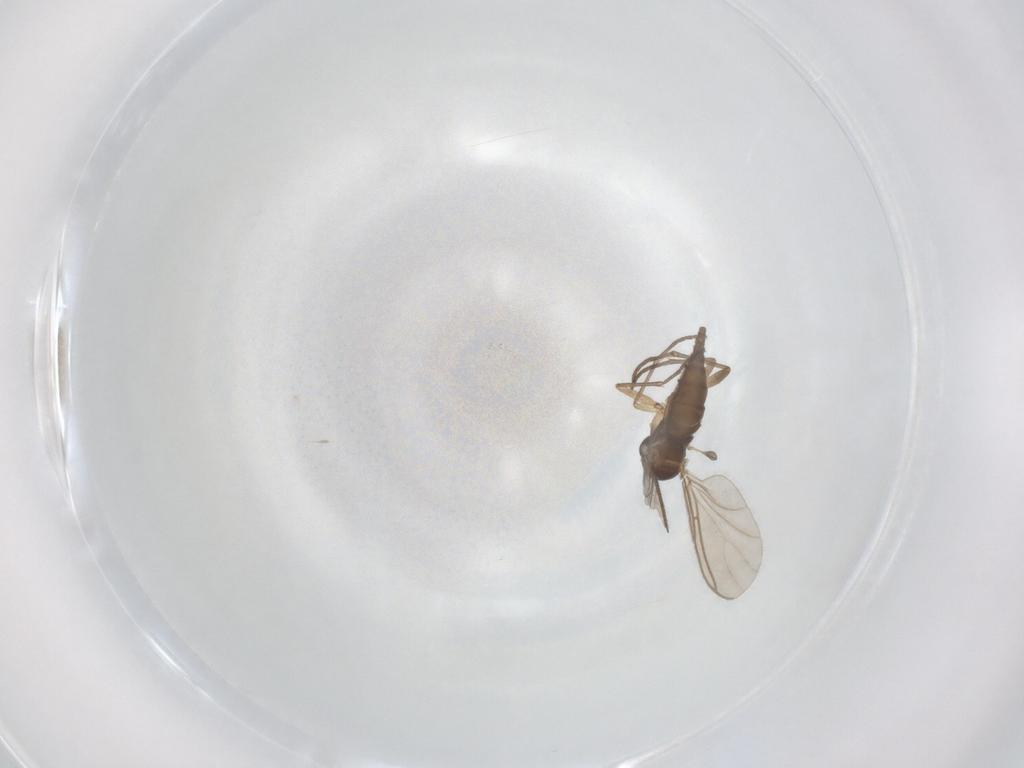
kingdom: Animalia
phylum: Arthropoda
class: Insecta
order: Diptera
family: Sciaridae
